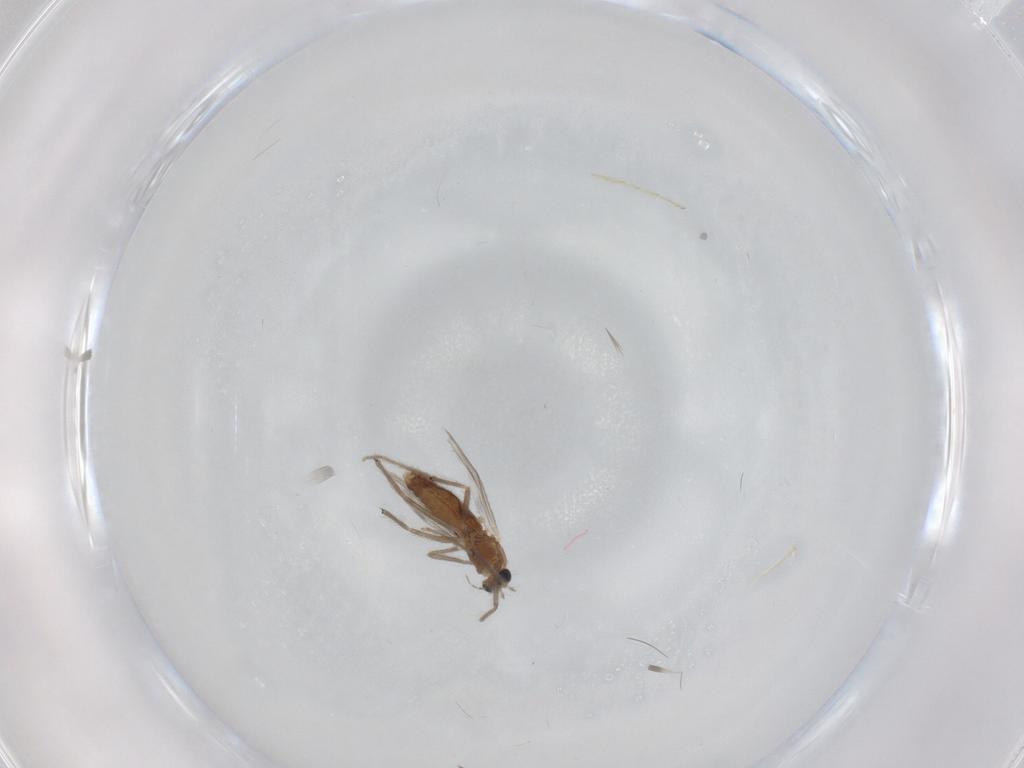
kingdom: Animalia
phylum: Arthropoda
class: Insecta
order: Diptera
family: Chironomidae
